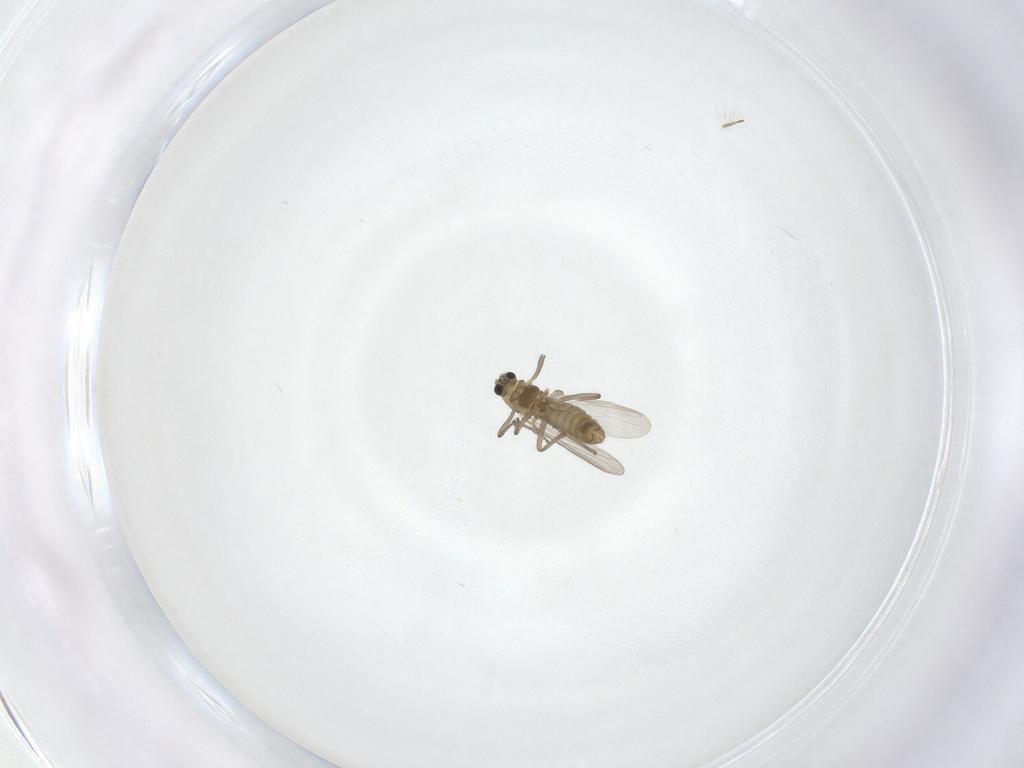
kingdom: Animalia
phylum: Arthropoda
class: Insecta
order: Diptera
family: Chironomidae
